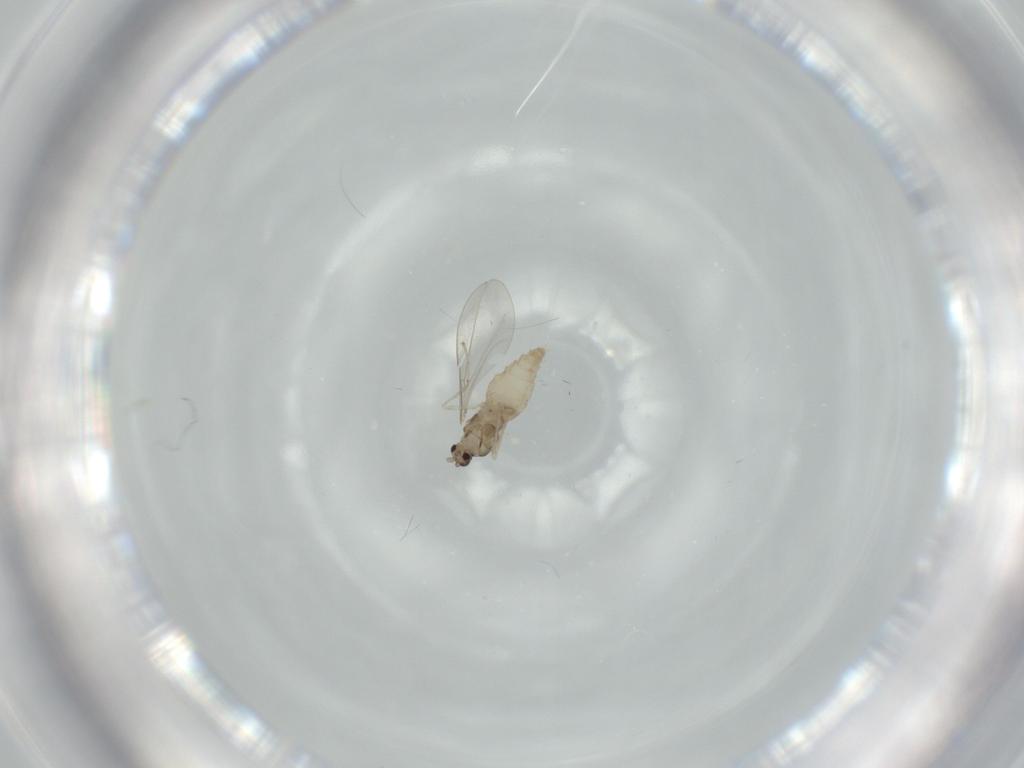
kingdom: Animalia
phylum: Arthropoda
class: Insecta
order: Diptera
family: Cecidomyiidae
